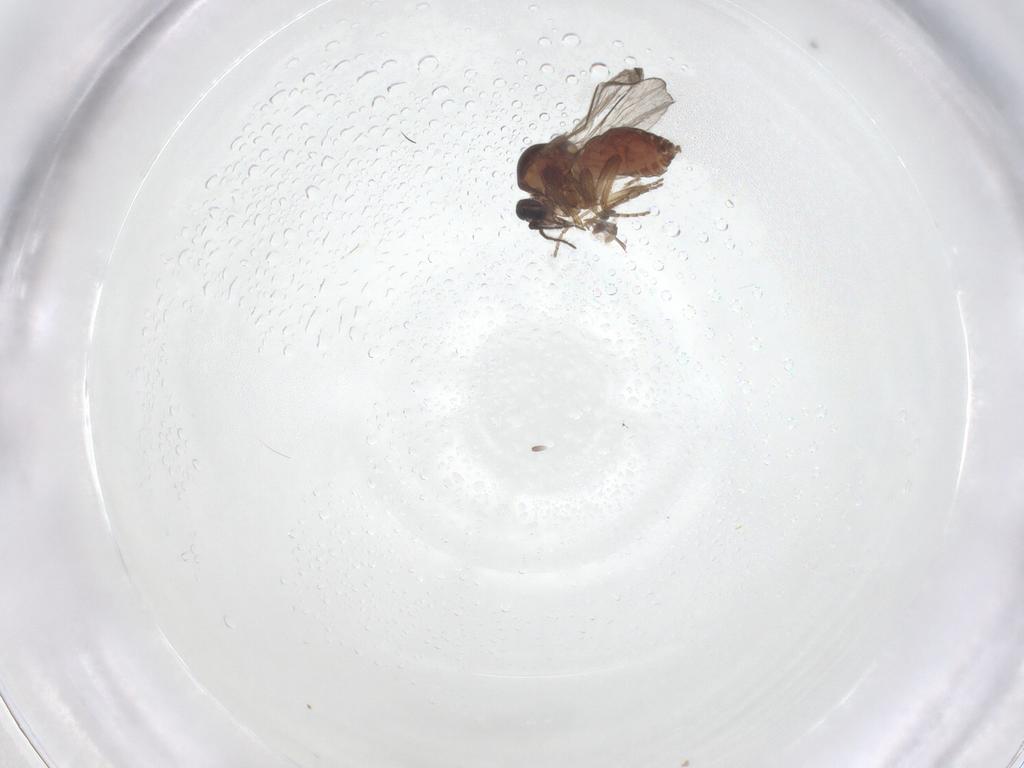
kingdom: Animalia
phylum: Arthropoda
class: Insecta
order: Diptera
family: Ceratopogonidae
